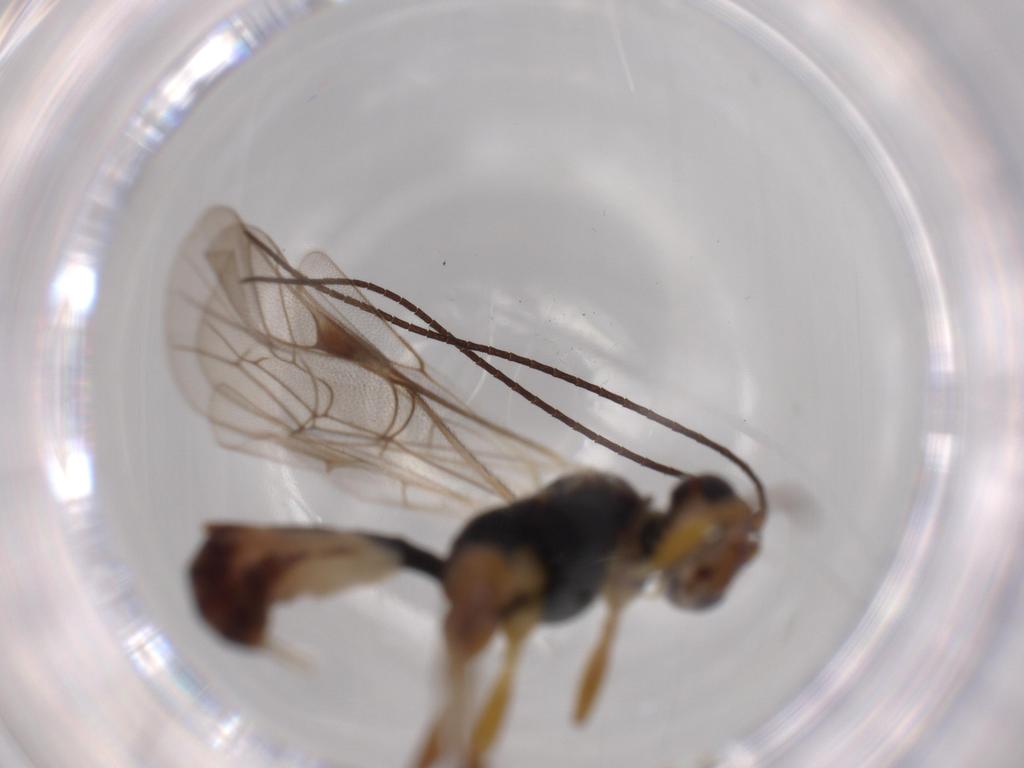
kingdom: Animalia
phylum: Arthropoda
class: Insecta
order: Hymenoptera
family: Ichneumonidae
